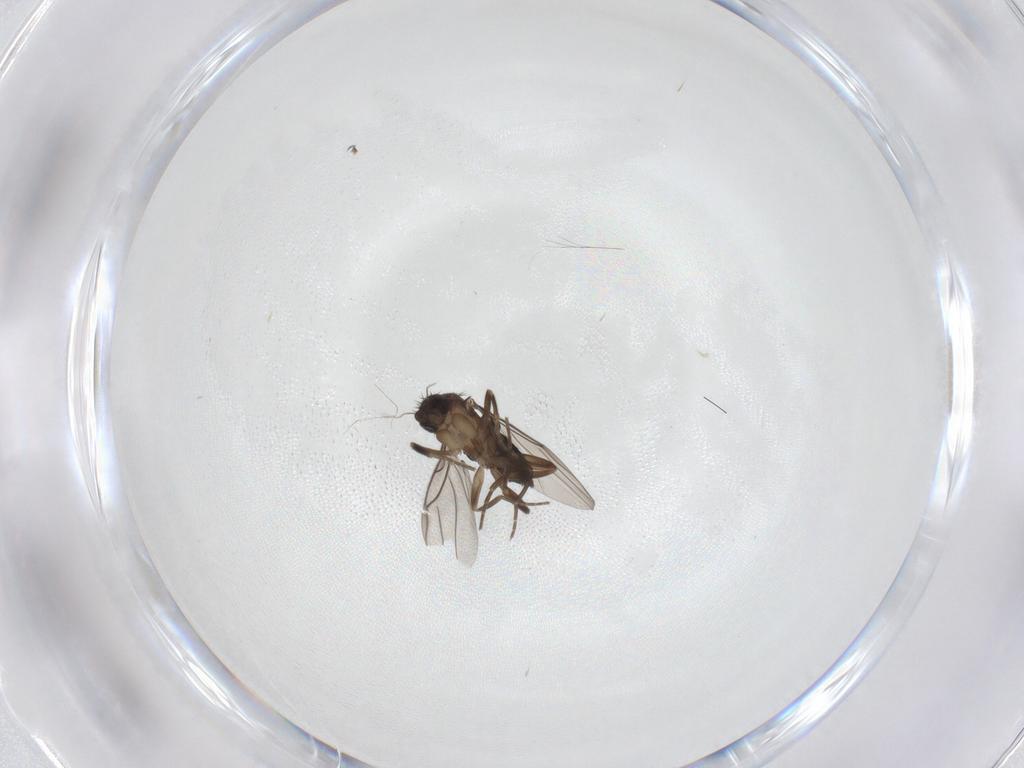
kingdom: Animalia
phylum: Arthropoda
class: Insecta
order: Diptera
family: Phoridae
